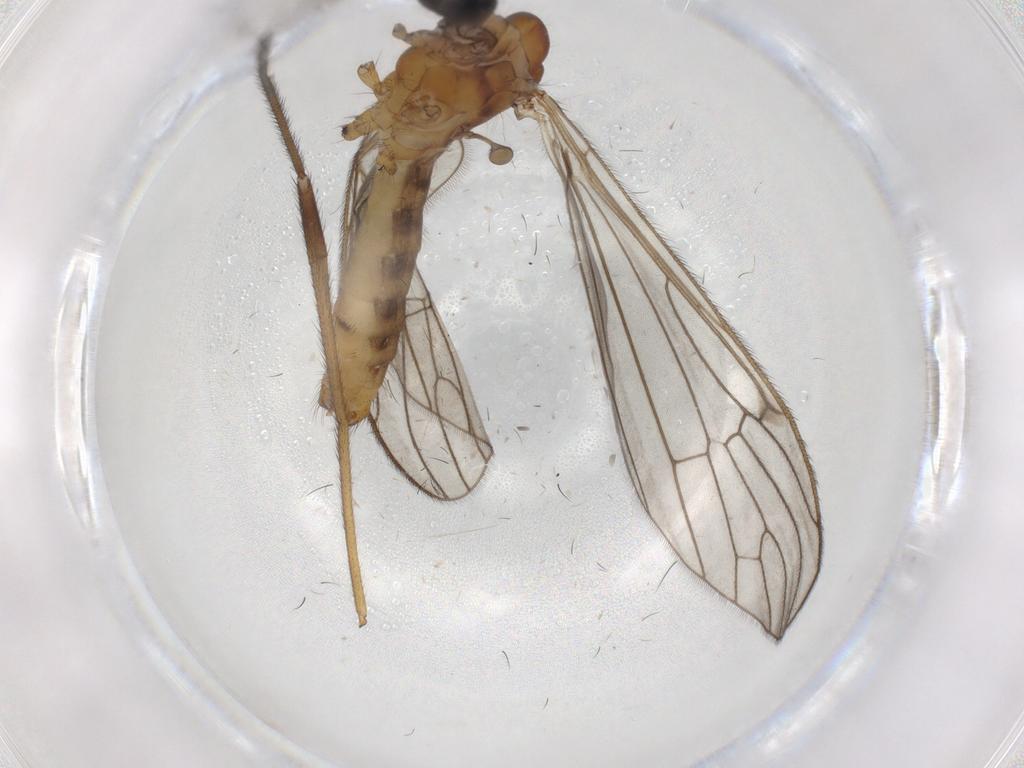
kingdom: Animalia
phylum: Arthropoda
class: Insecta
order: Diptera
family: Limoniidae
